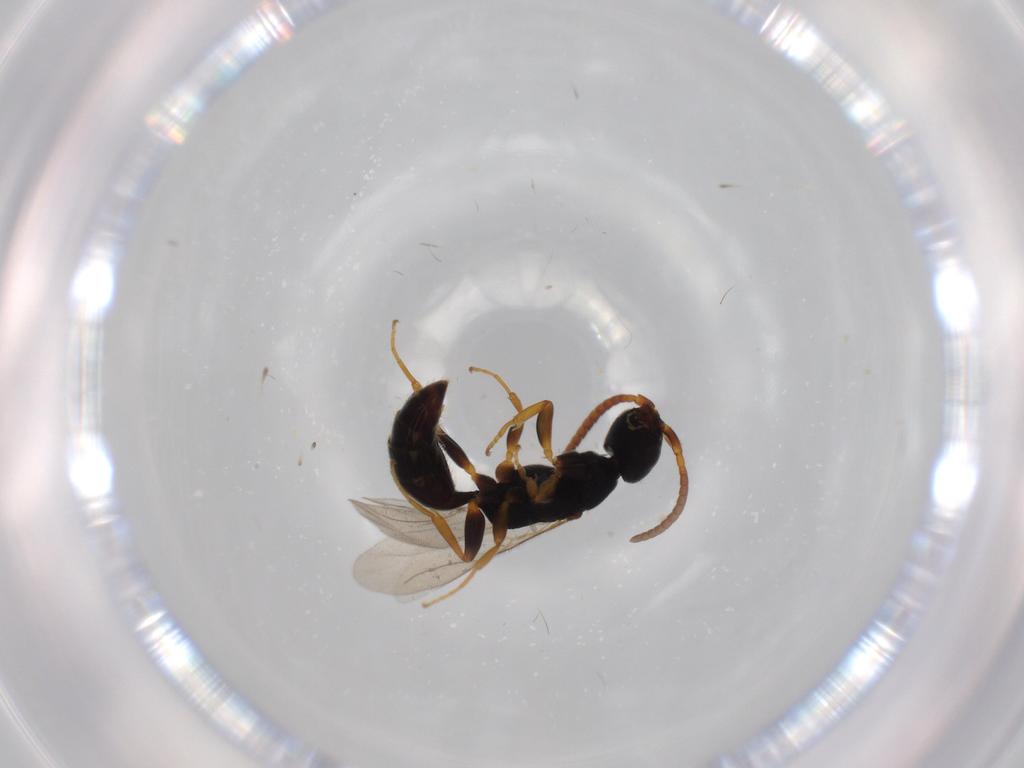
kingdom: Animalia
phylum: Arthropoda
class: Insecta
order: Hymenoptera
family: Bethylidae
